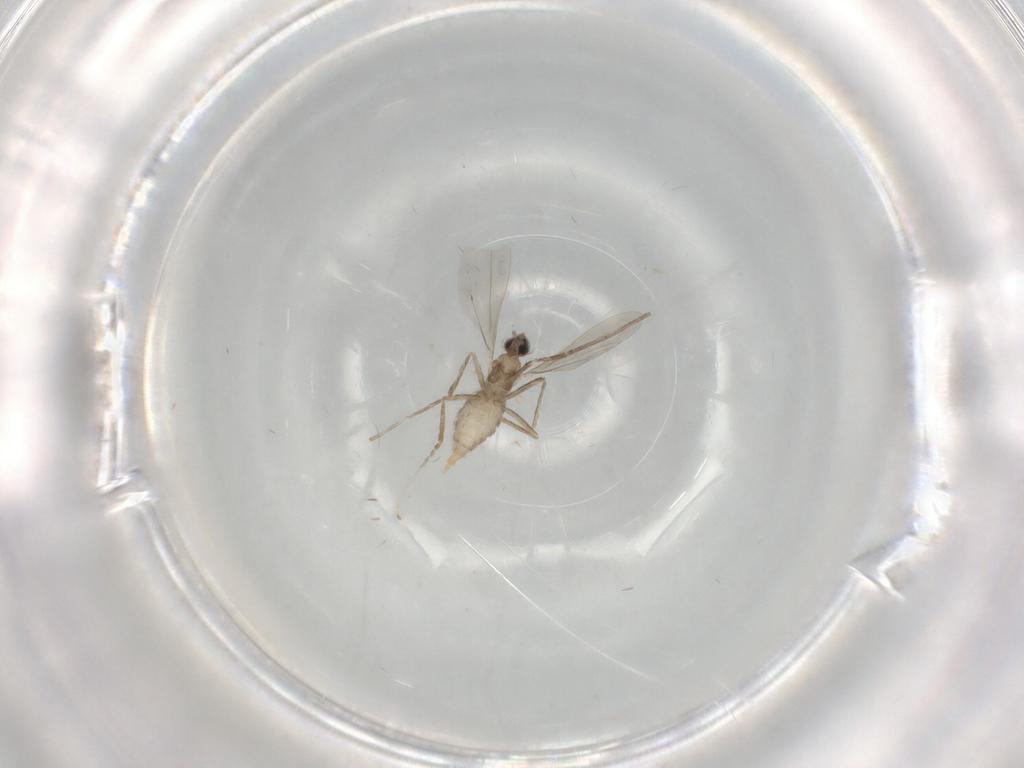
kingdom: Animalia
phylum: Arthropoda
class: Insecta
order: Diptera
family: Cecidomyiidae
